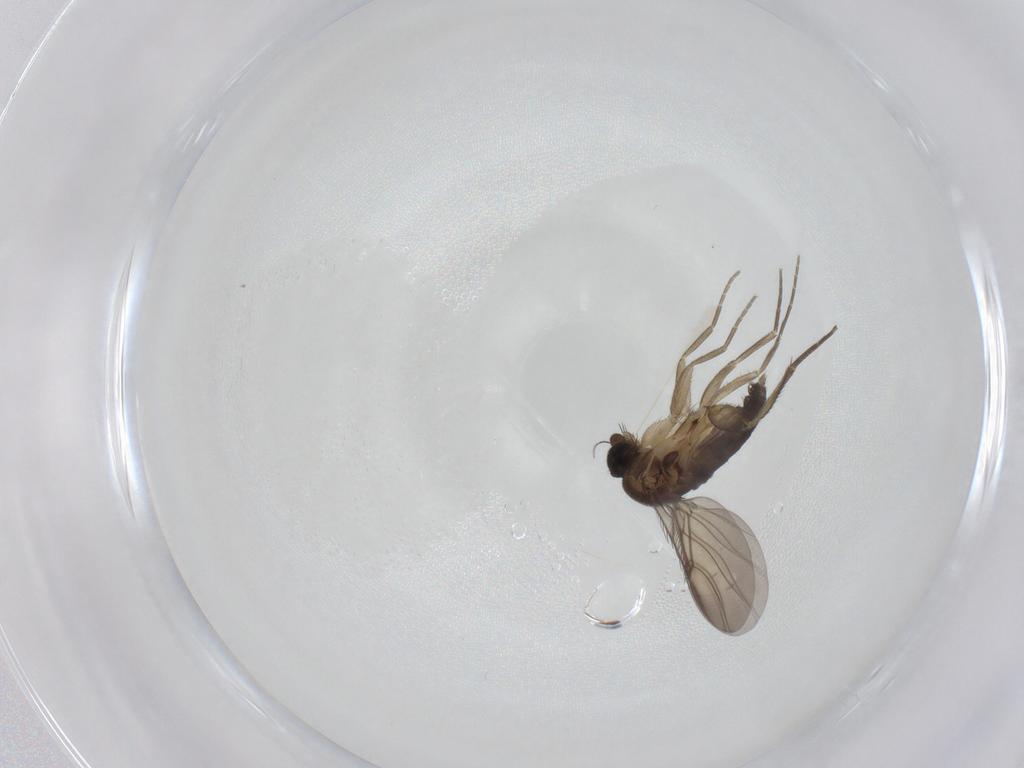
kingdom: Animalia
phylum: Arthropoda
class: Insecta
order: Diptera
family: Phoridae
